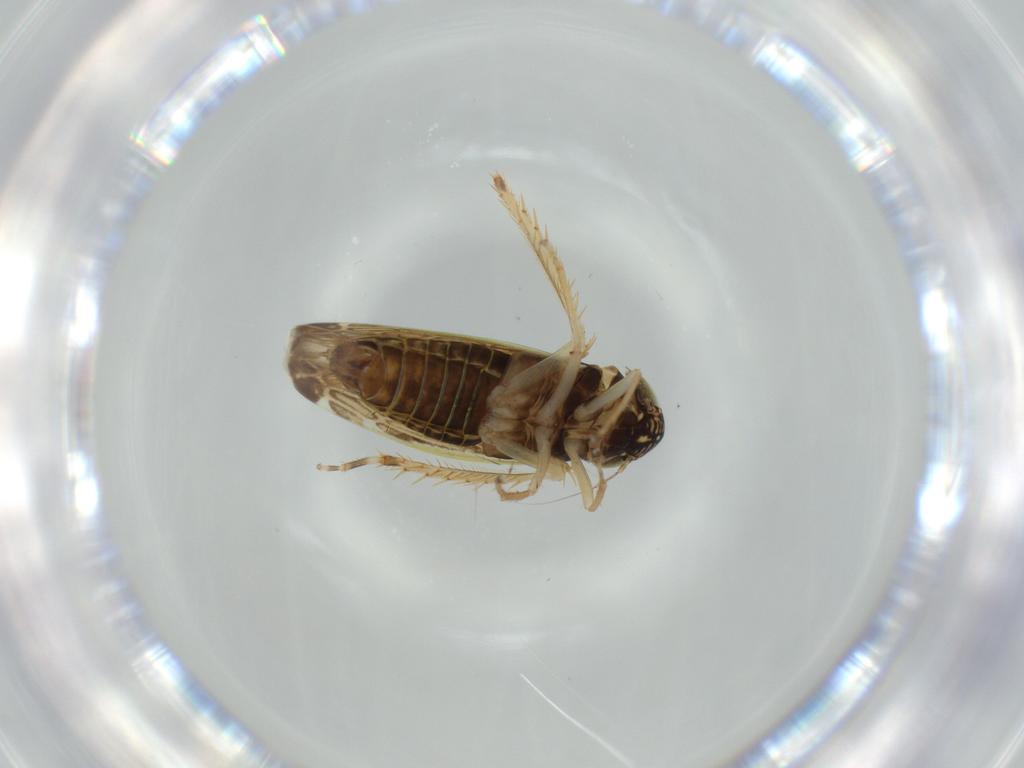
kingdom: Animalia
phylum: Arthropoda
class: Insecta
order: Hemiptera
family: Cicadellidae
